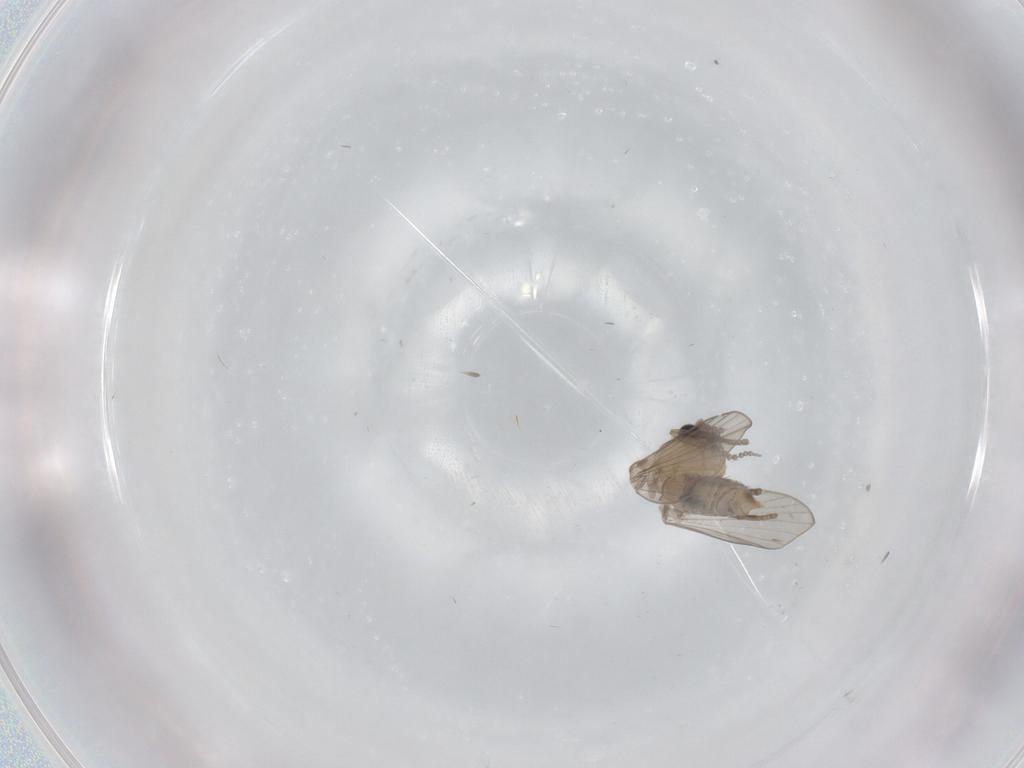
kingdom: Animalia
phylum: Arthropoda
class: Insecta
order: Diptera
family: Psychodidae
